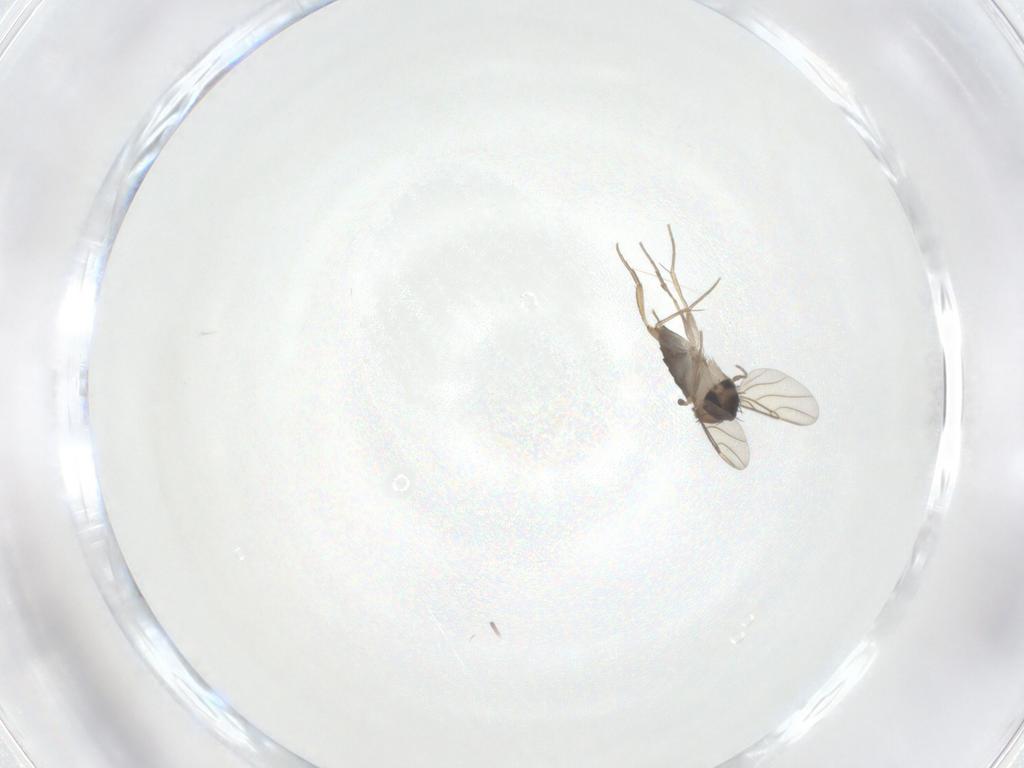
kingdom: Animalia
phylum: Arthropoda
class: Insecta
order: Diptera
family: Phoridae
